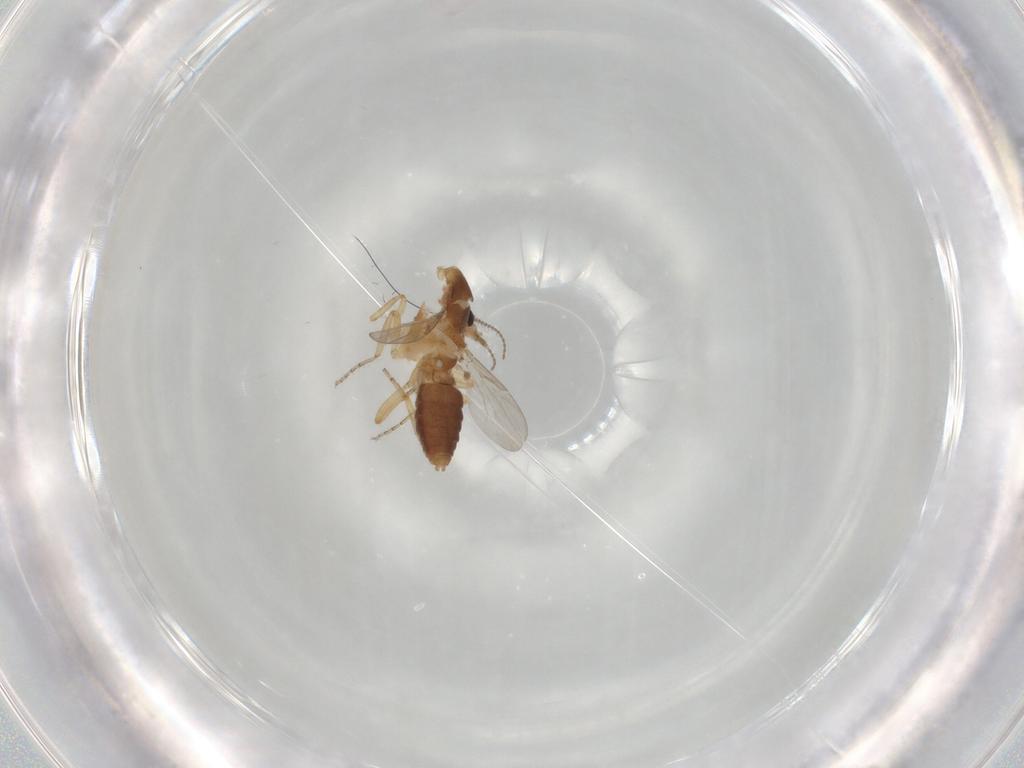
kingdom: Animalia
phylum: Arthropoda
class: Insecta
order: Diptera
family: Ceratopogonidae
